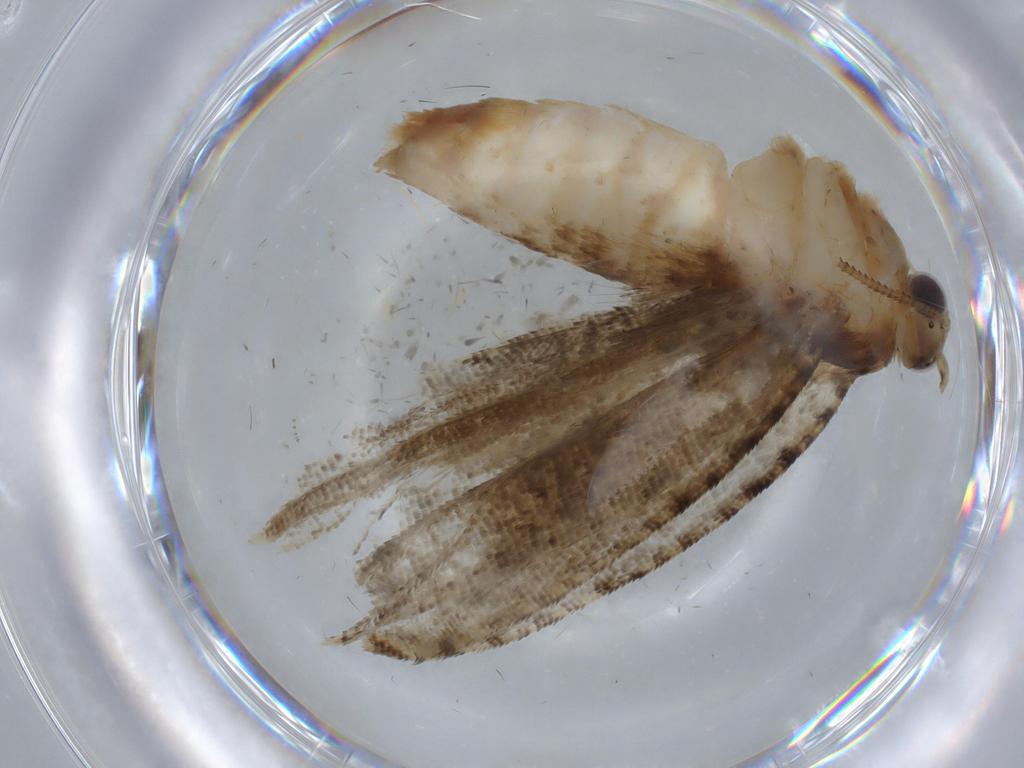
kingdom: Animalia
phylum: Arthropoda
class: Insecta
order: Lepidoptera
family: Tortricidae
